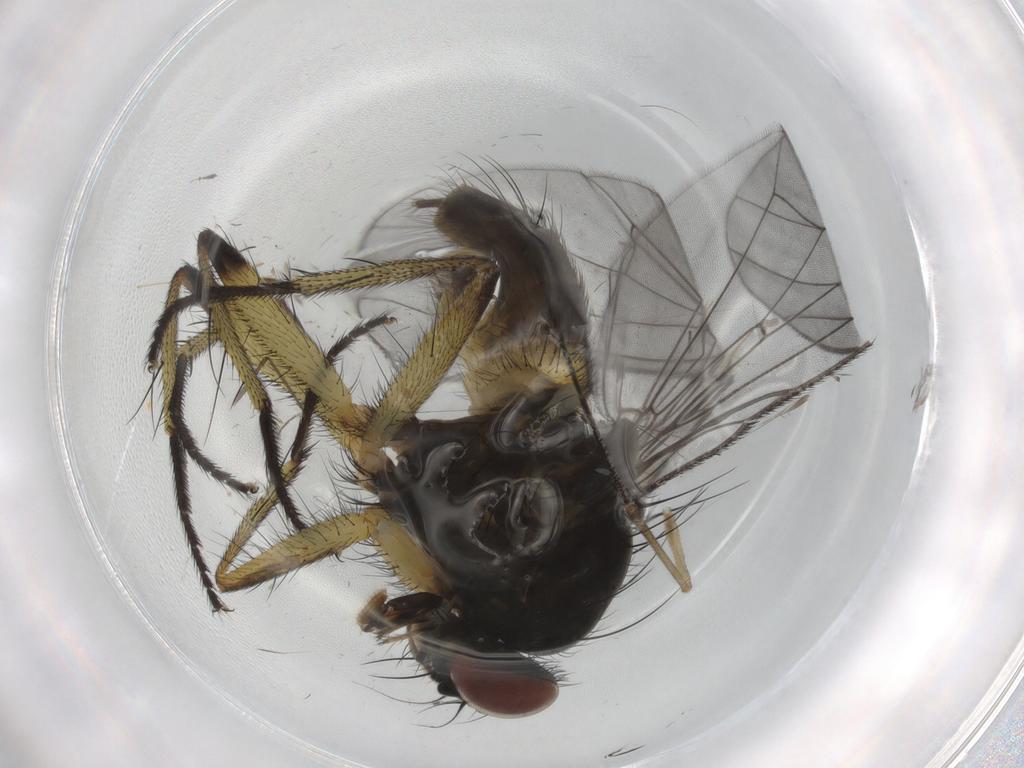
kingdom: Animalia
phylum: Arthropoda
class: Insecta
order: Diptera
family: Muscidae
